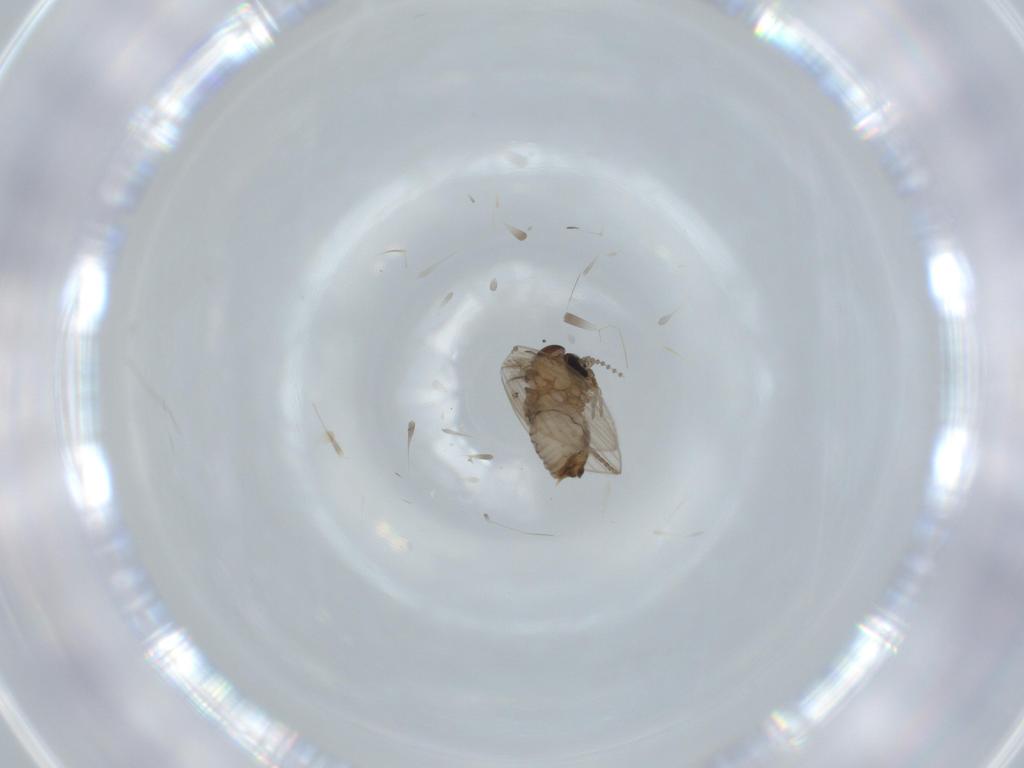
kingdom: Animalia
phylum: Arthropoda
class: Insecta
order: Diptera
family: Psychodidae
